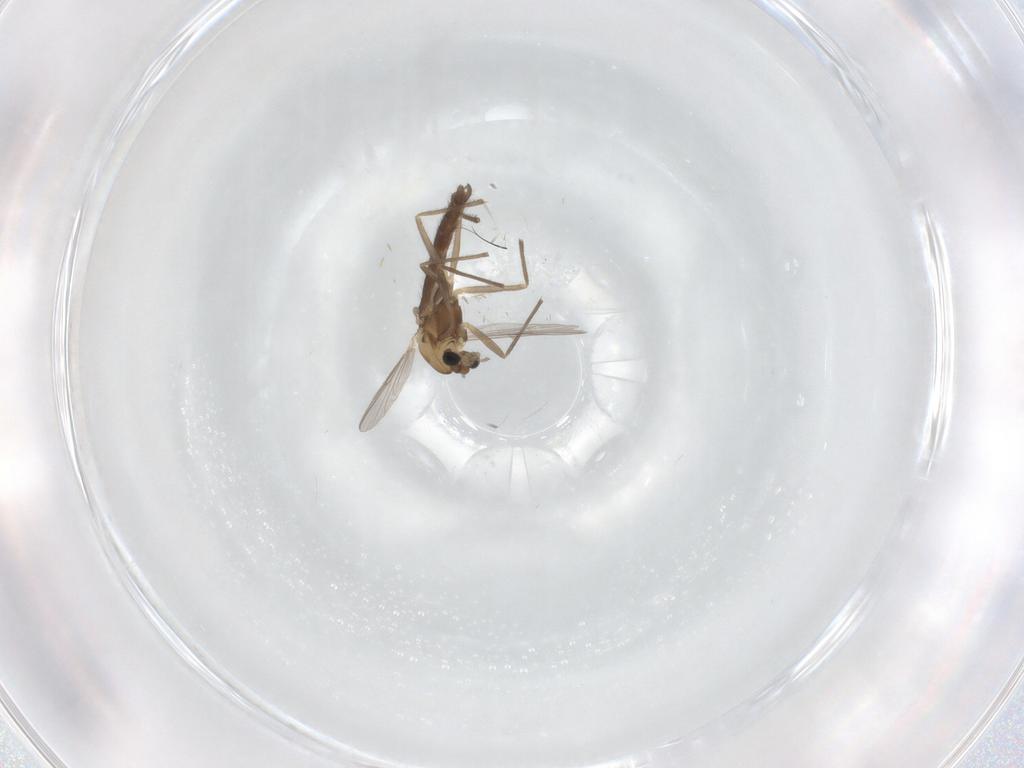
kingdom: Animalia
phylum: Arthropoda
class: Insecta
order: Diptera
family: Chironomidae
